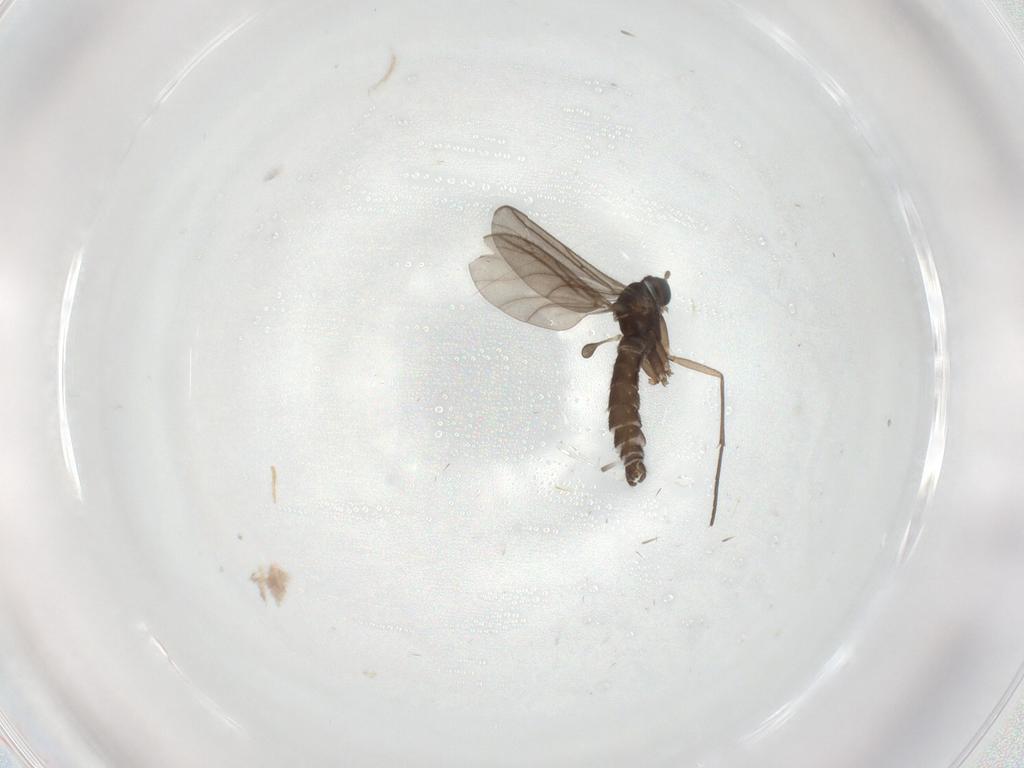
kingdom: Animalia
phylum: Arthropoda
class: Insecta
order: Diptera
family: Sciaridae
